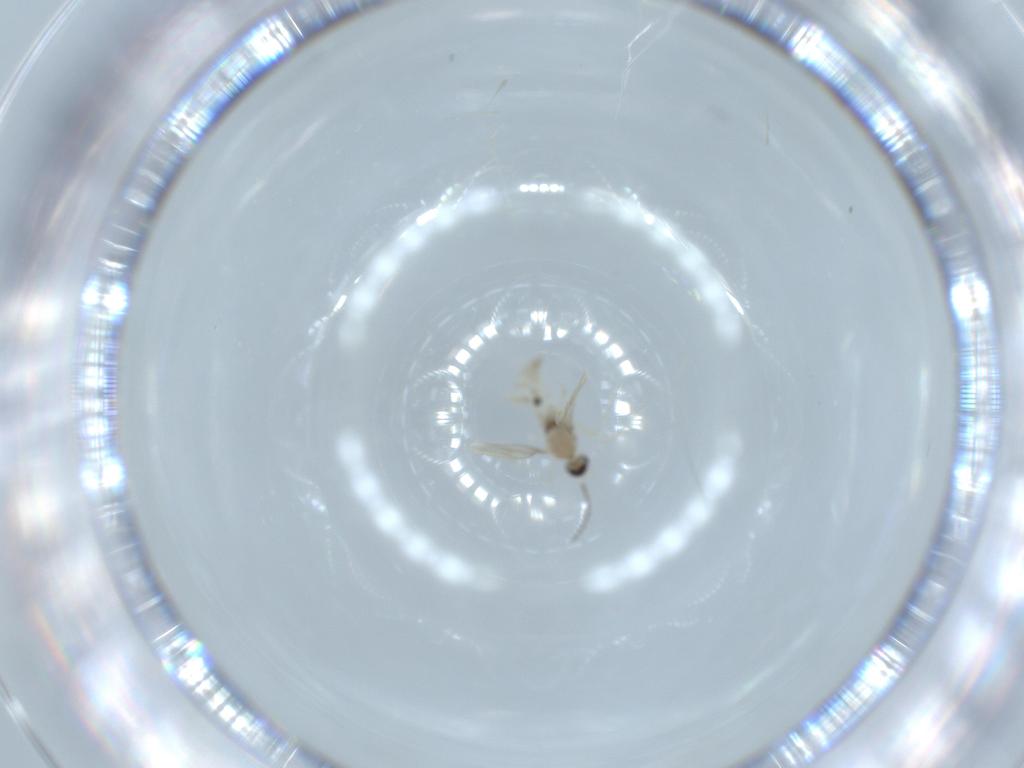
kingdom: Animalia
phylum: Arthropoda
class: Insecta
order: Diptera
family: Cecidomyiidae
